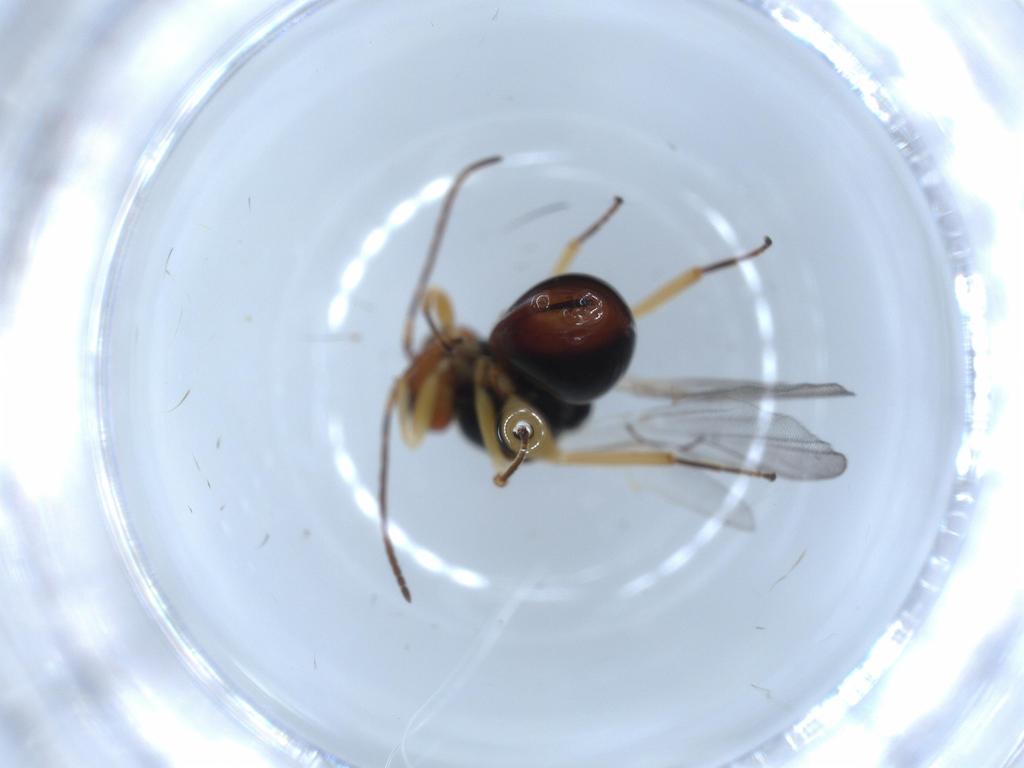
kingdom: Animalia
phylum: Arthropoda
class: Insecta
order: Hymenoptera
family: Cynipidae
